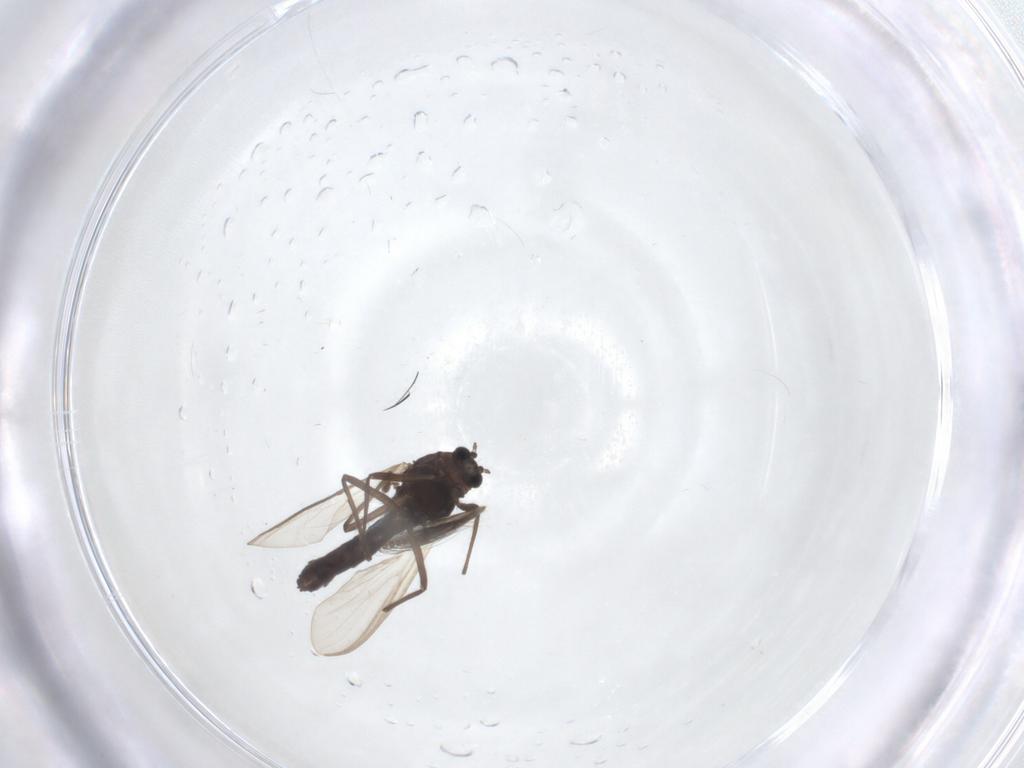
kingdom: Animalia
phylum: Arthropoda
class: Insecta
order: Diptera
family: Ceratopogonidae
